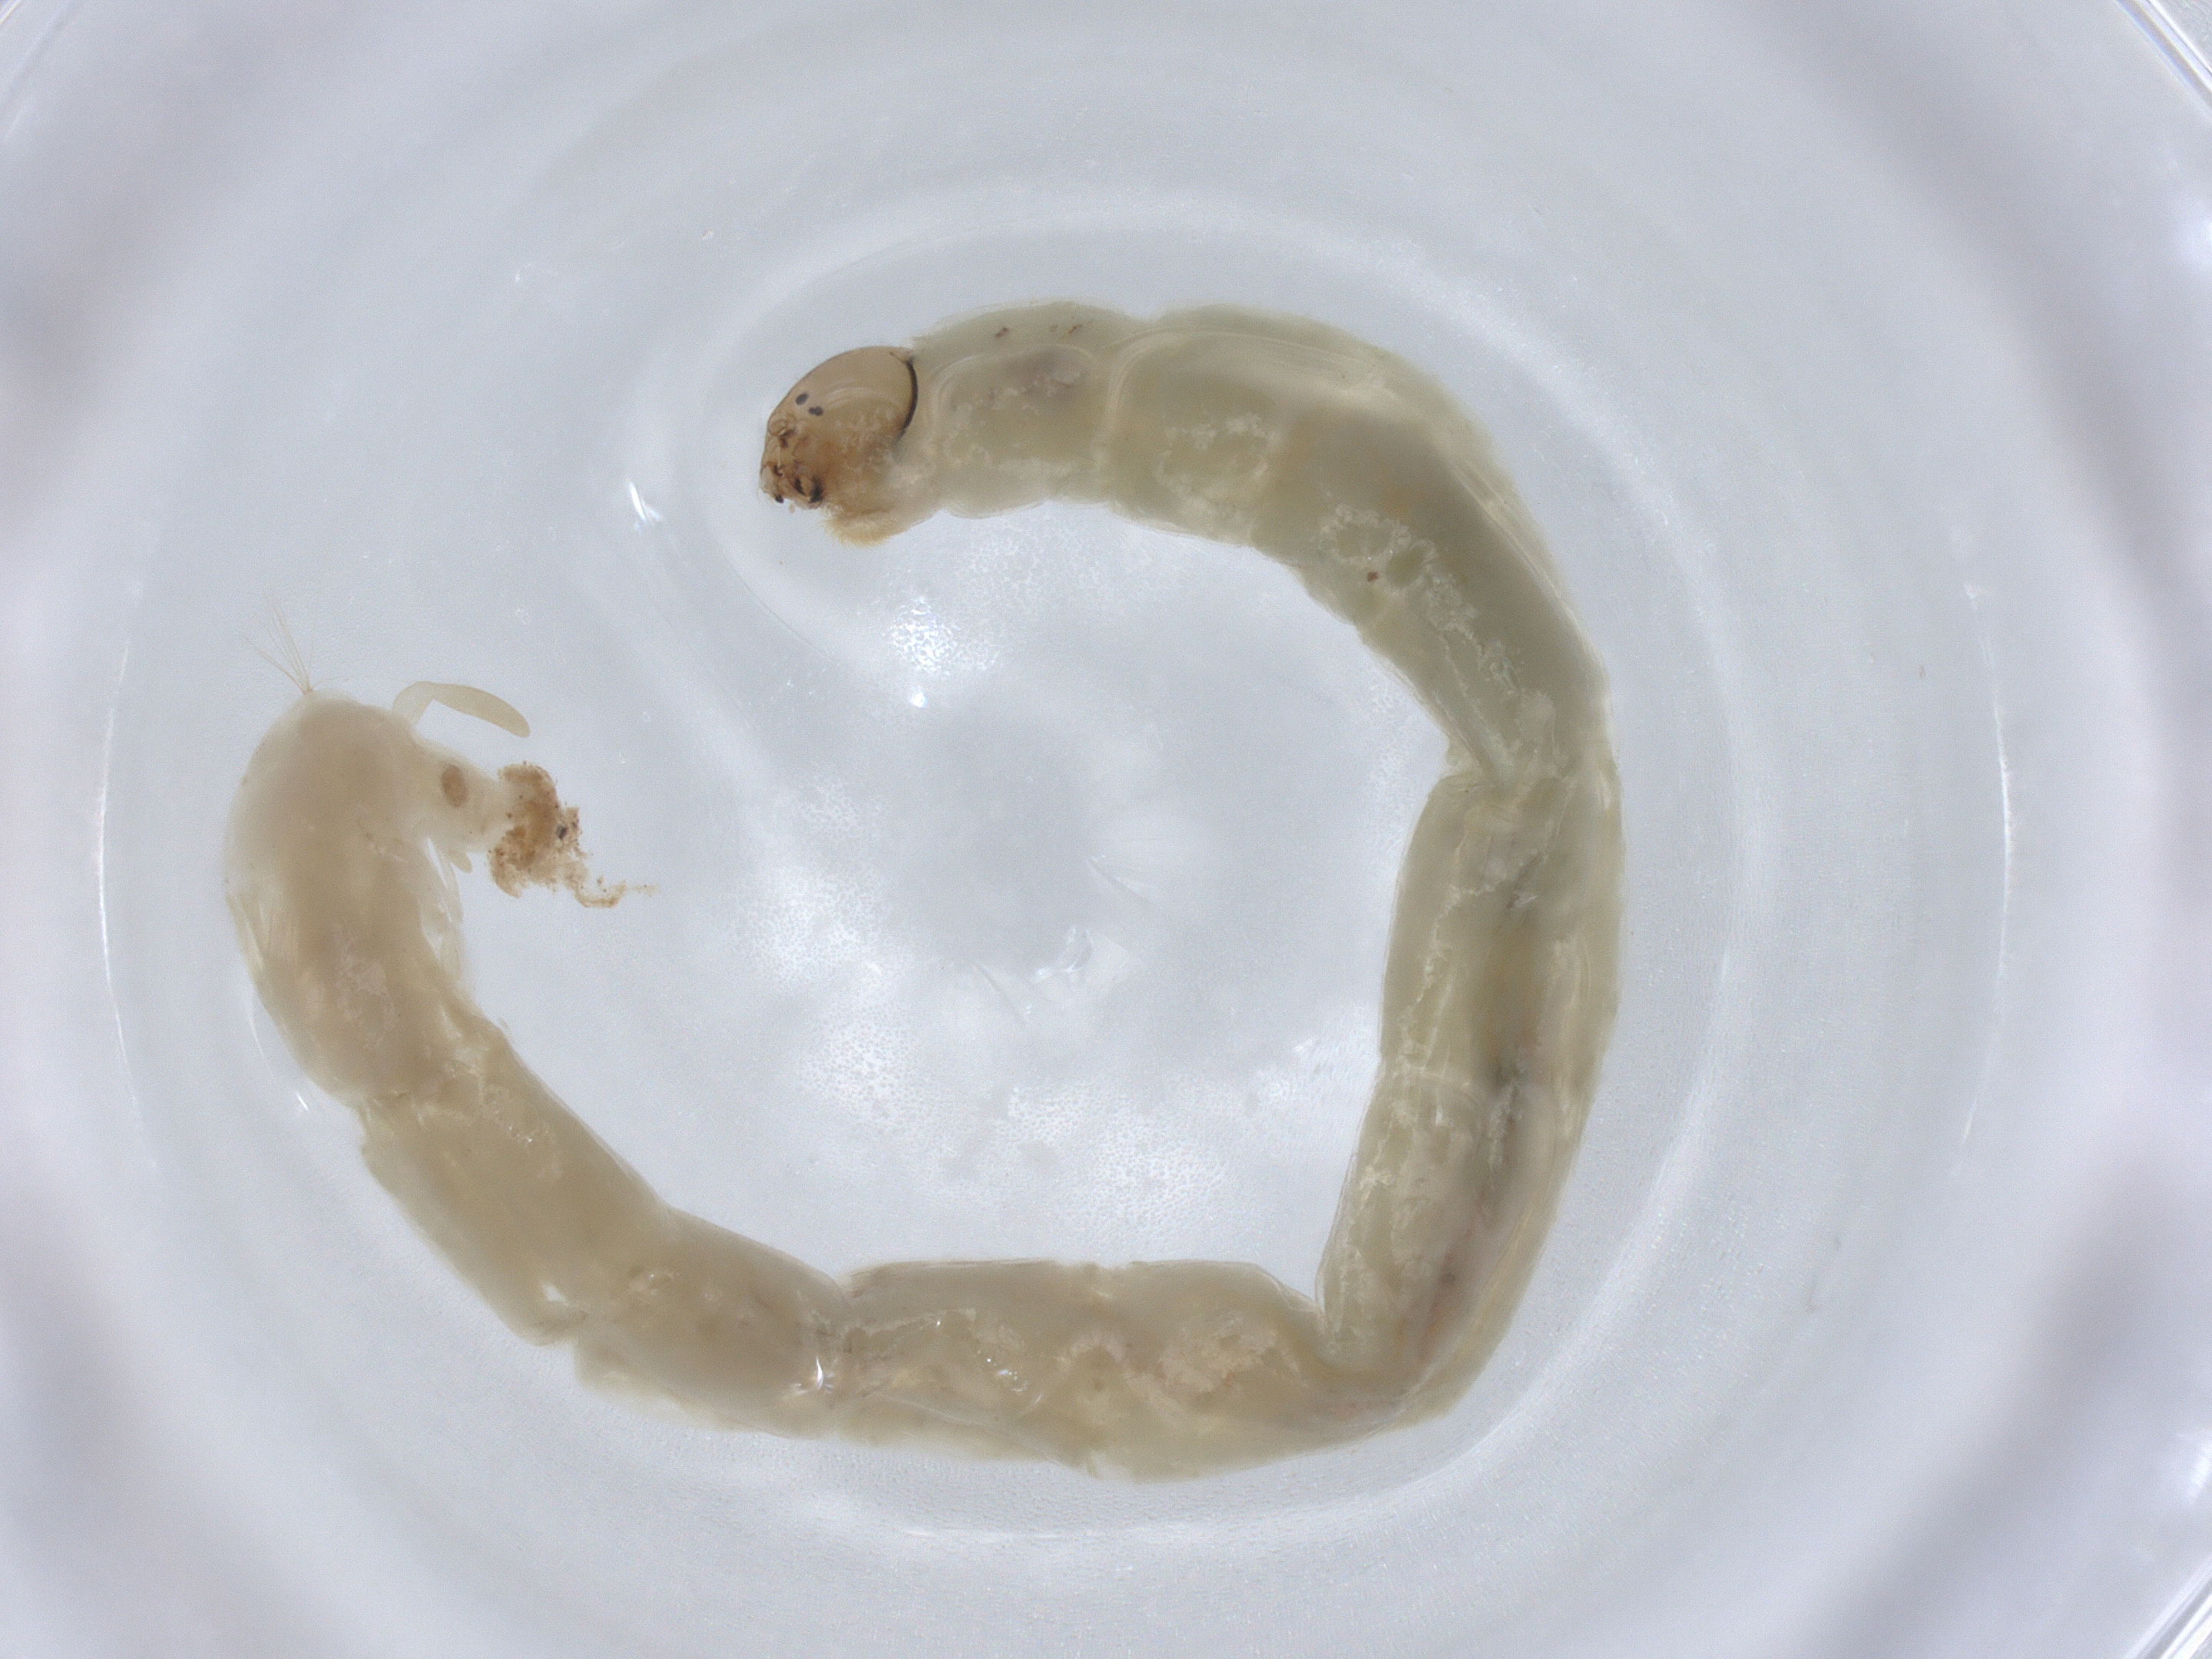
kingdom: Animalia
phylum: Arthropoda
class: Insecta
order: Diptera
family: Chironomidae
